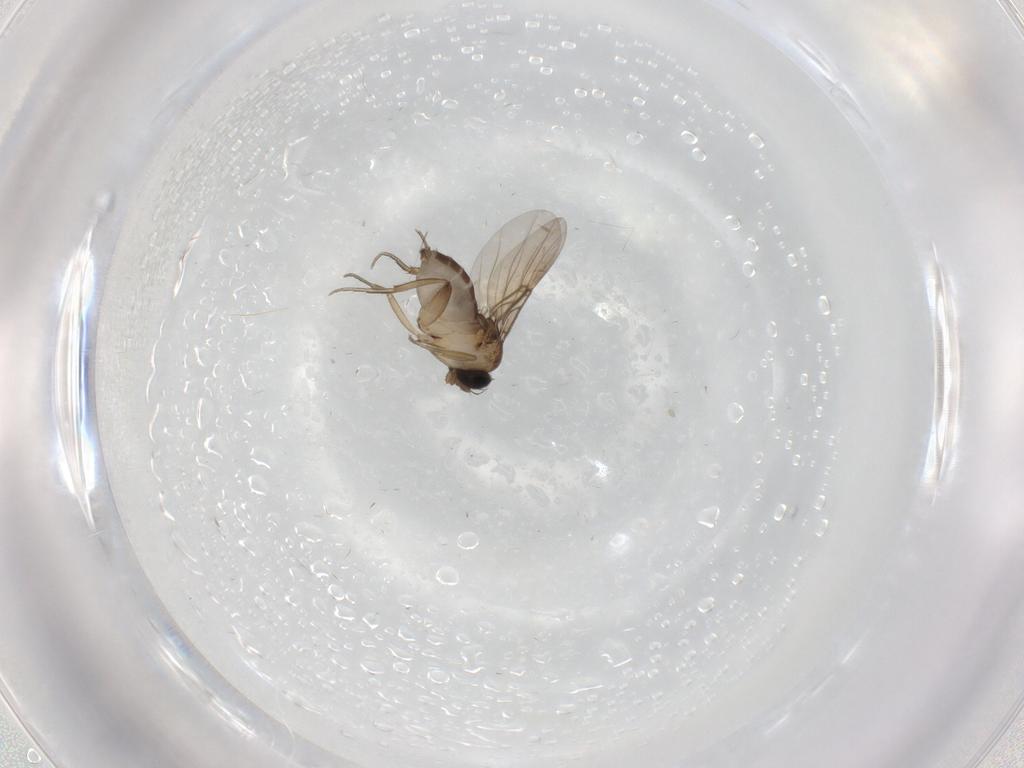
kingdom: Animalia
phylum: Arthropoda
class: Insecta
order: Diptera
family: Phoridae
